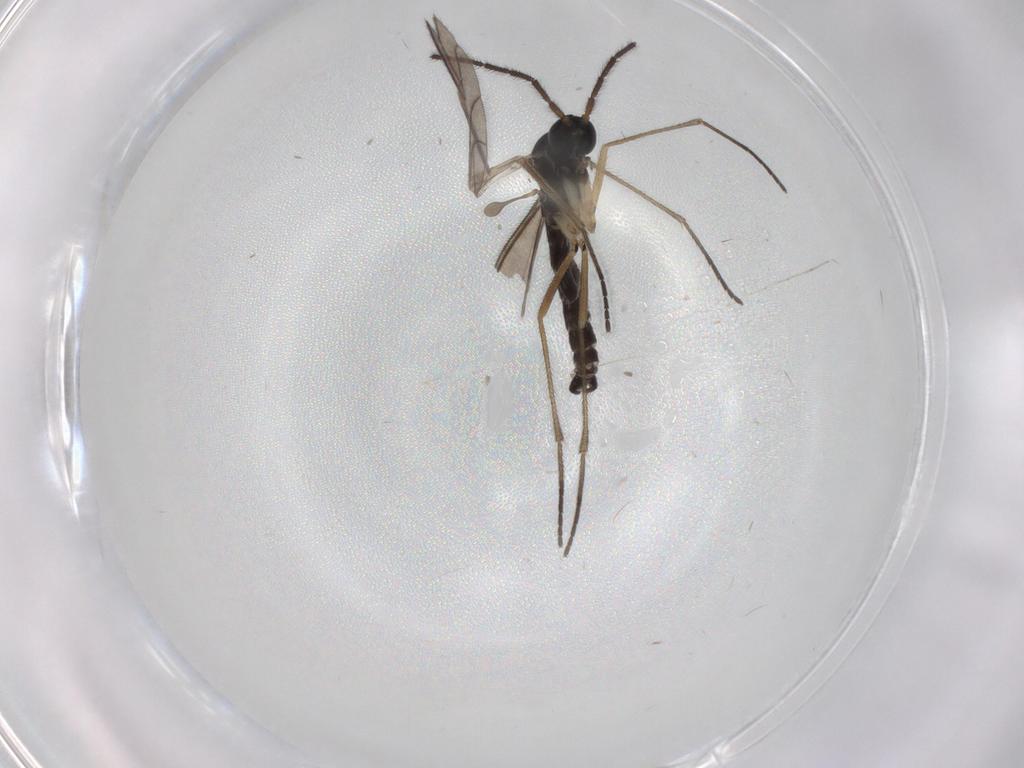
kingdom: Animalia
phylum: Arthropoda
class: Insecta
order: Diptera
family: Sciaridae
